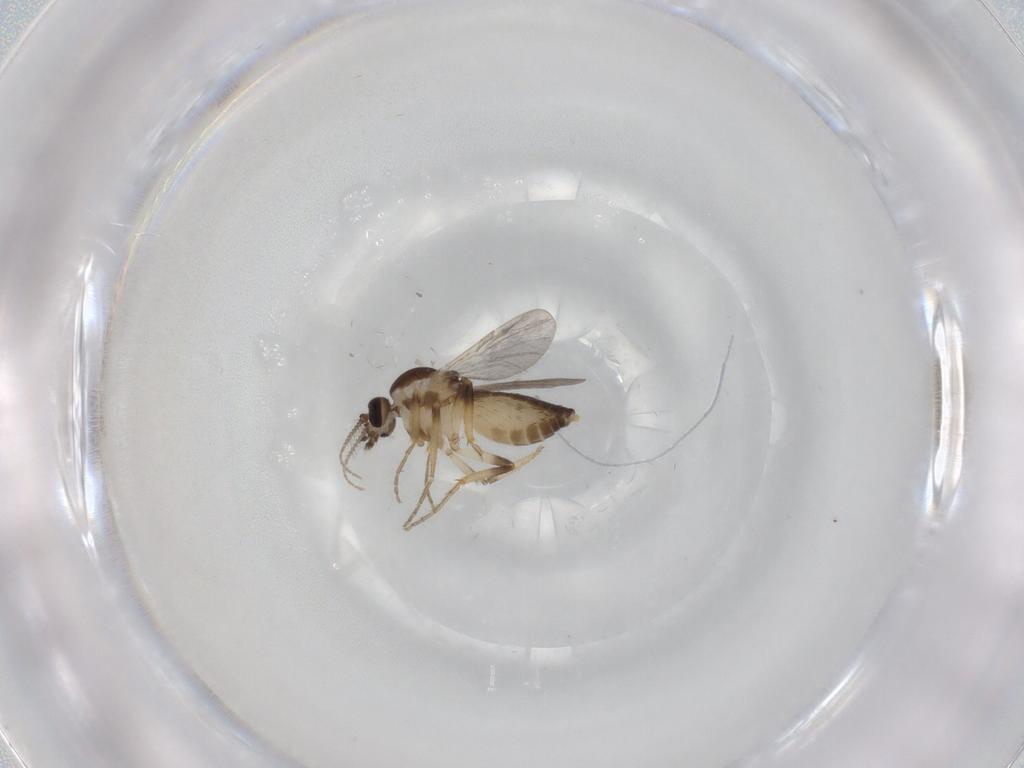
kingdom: Animalia
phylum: Arthropoda
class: Insecta
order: Diptera
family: Ceratopogonidae
